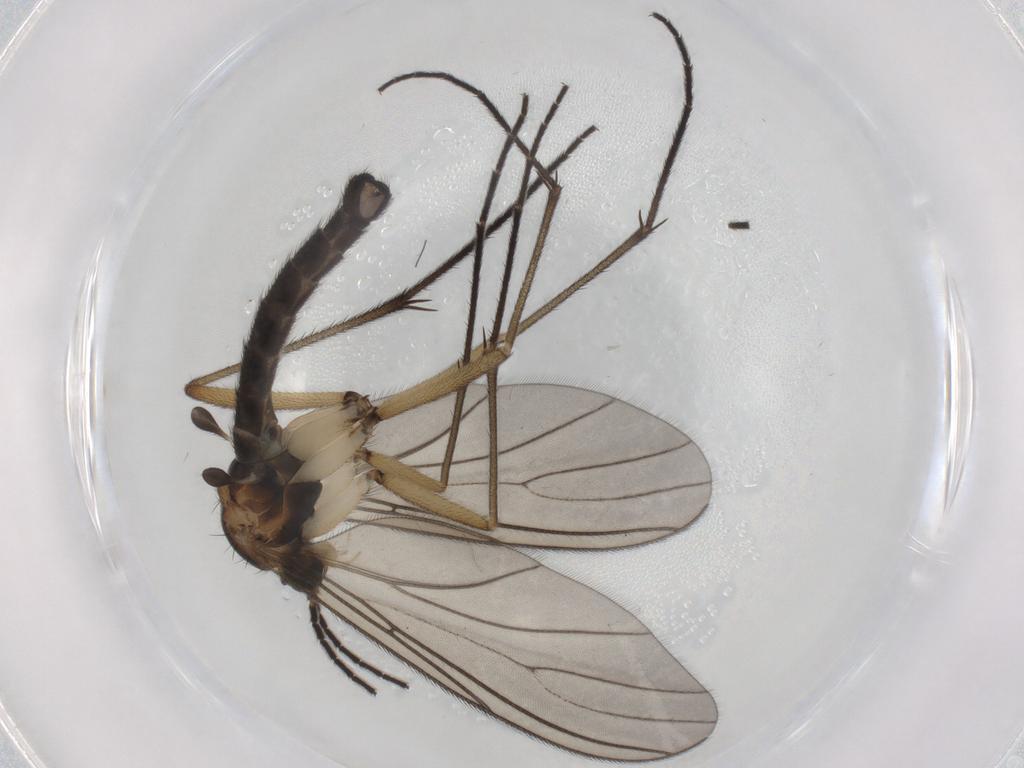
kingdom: Animalia
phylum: Arthropoda
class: Insecta
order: Diptera
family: Sciaridae
